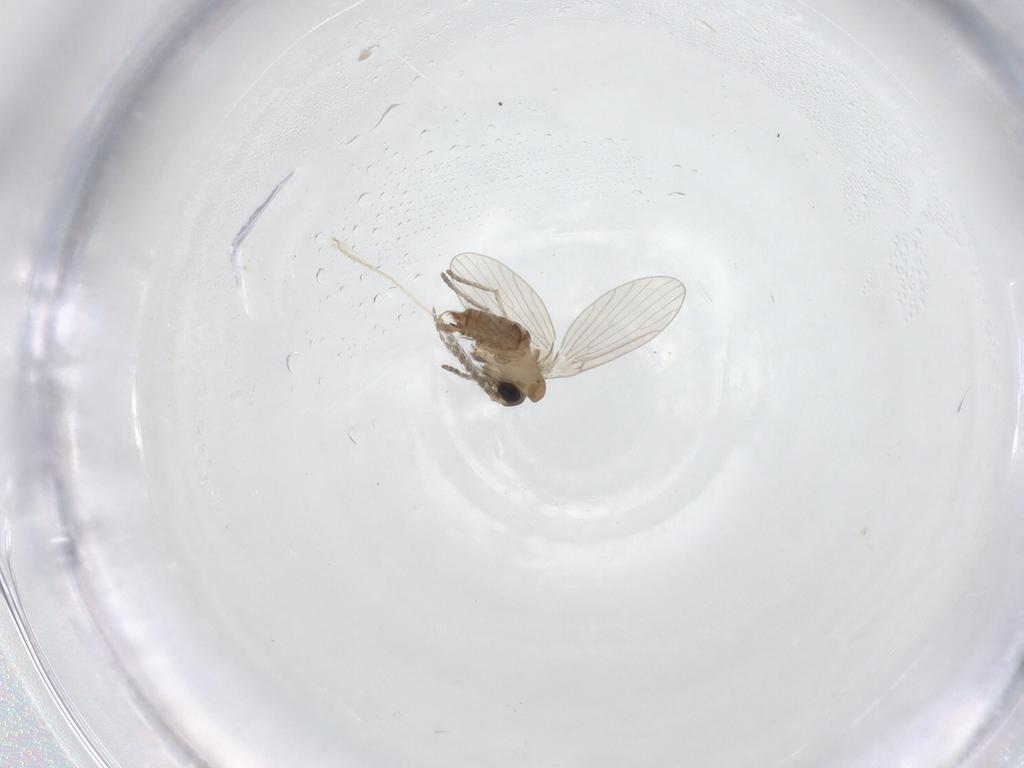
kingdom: Animalia
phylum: Arthropoda
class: Insecta
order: Diptera
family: Psychodidae
